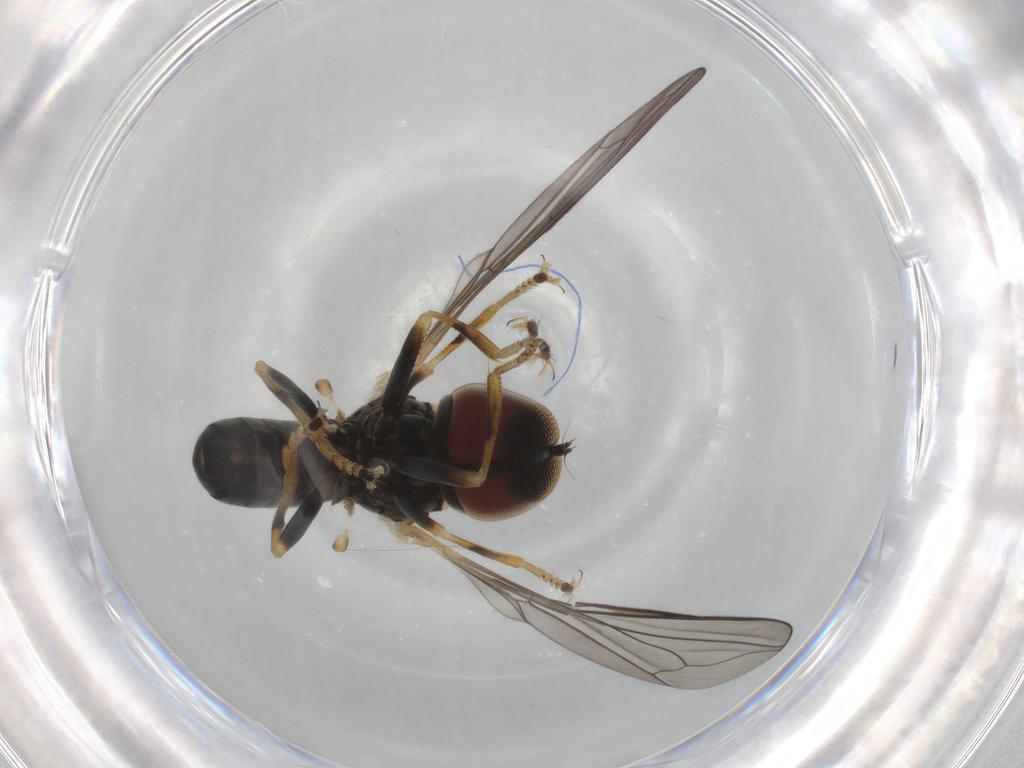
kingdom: Animalia
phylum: Arthropoda
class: Insecta
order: Diptera
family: Pipunculidae
